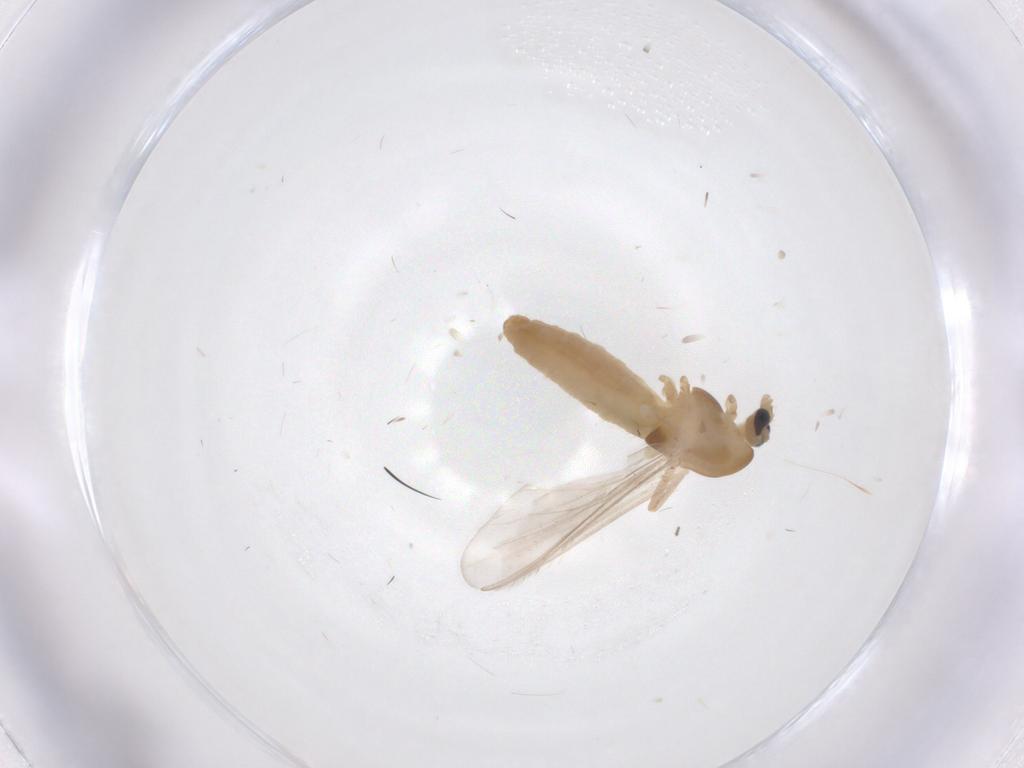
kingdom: Animalia
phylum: Arthropoda
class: Insecta
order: Diptera
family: Chironomidae
